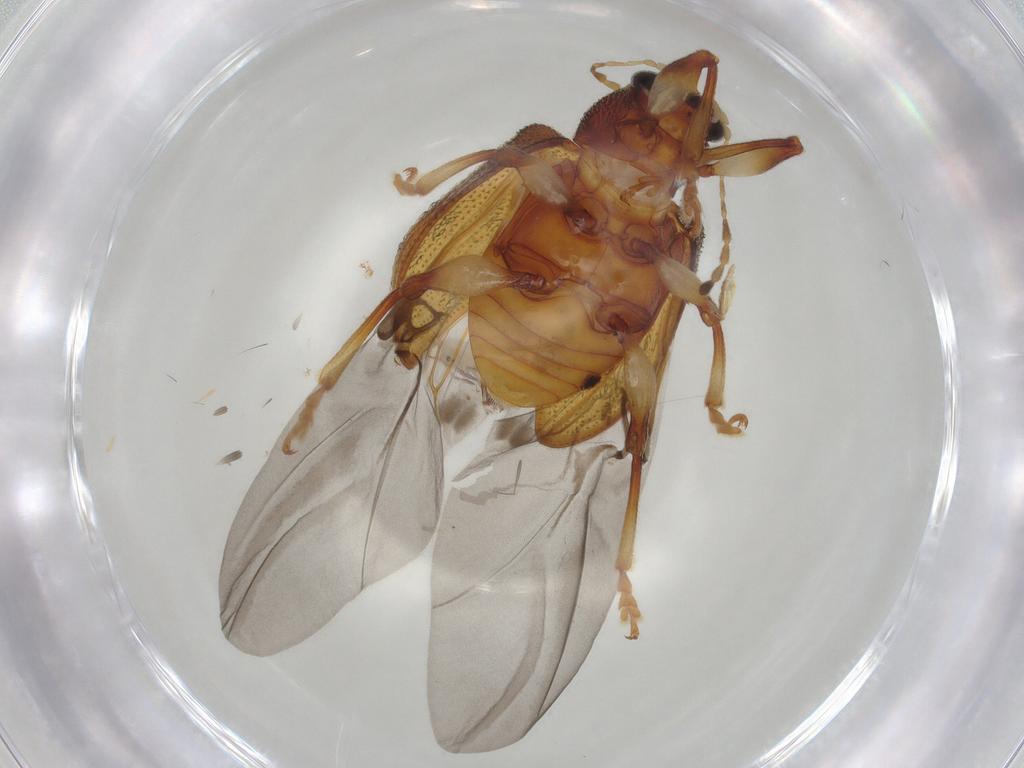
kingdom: Animalia
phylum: Arthropoda
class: Insecta
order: Coleoptera
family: Chrysomelidae
